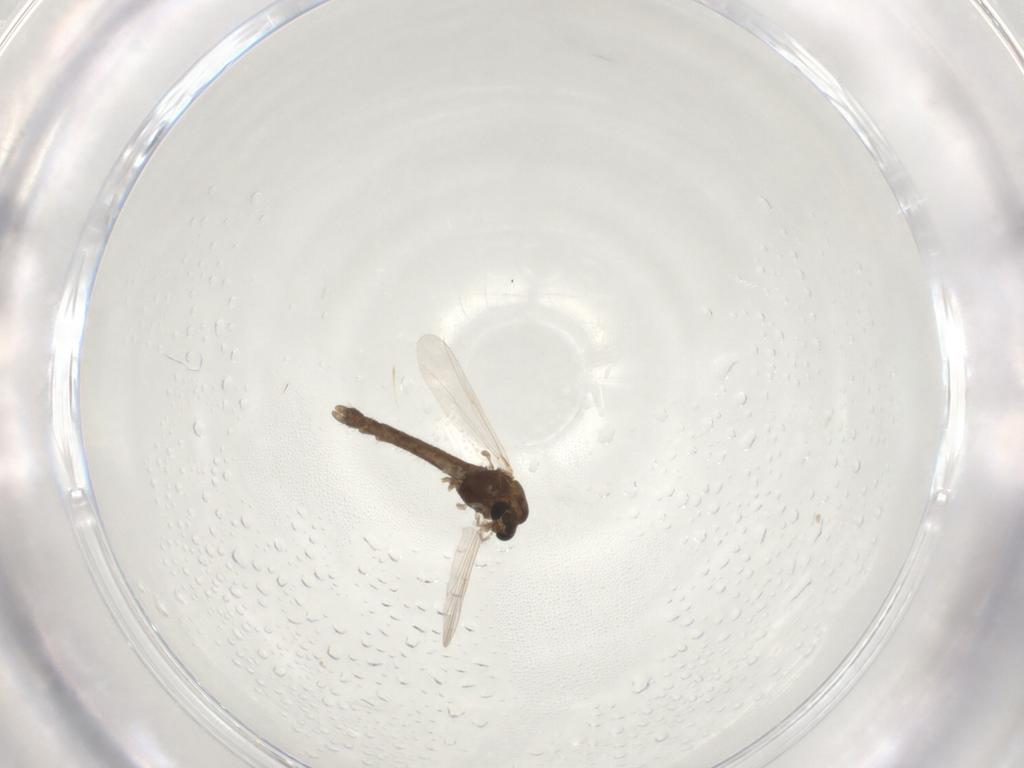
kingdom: Animalia
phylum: Arthropoda
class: Insecta
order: Diptera
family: Chironomidae
